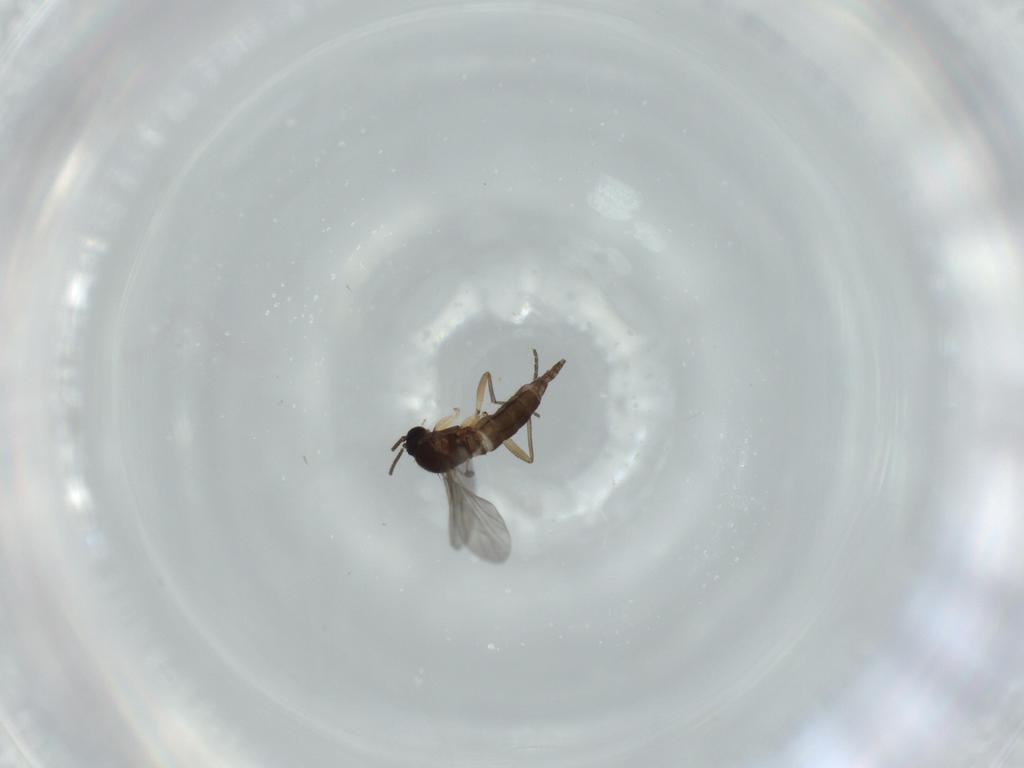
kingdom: Animalia
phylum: Arthropoda
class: Insecta
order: Diptera
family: Sciaridae
